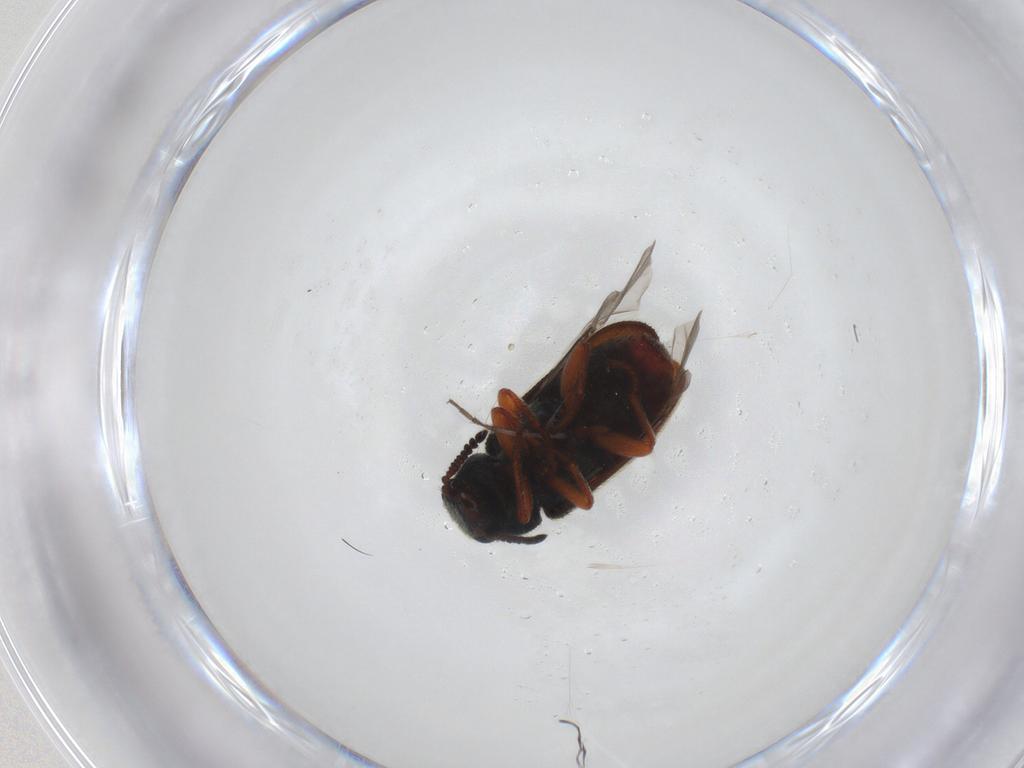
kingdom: Animalia
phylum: Arthropoda
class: Insecta
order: Coleoptera
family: Melyridae
